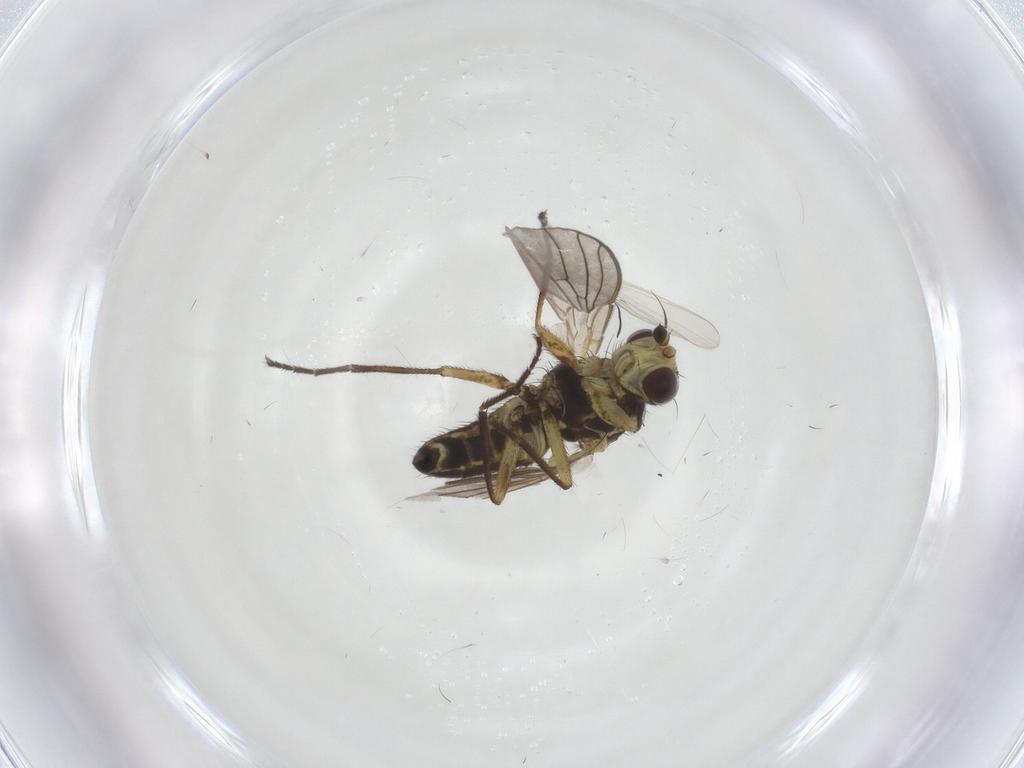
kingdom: Animalia
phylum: Arthropoda
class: Insecta
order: Diptera
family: Agromyzidae
